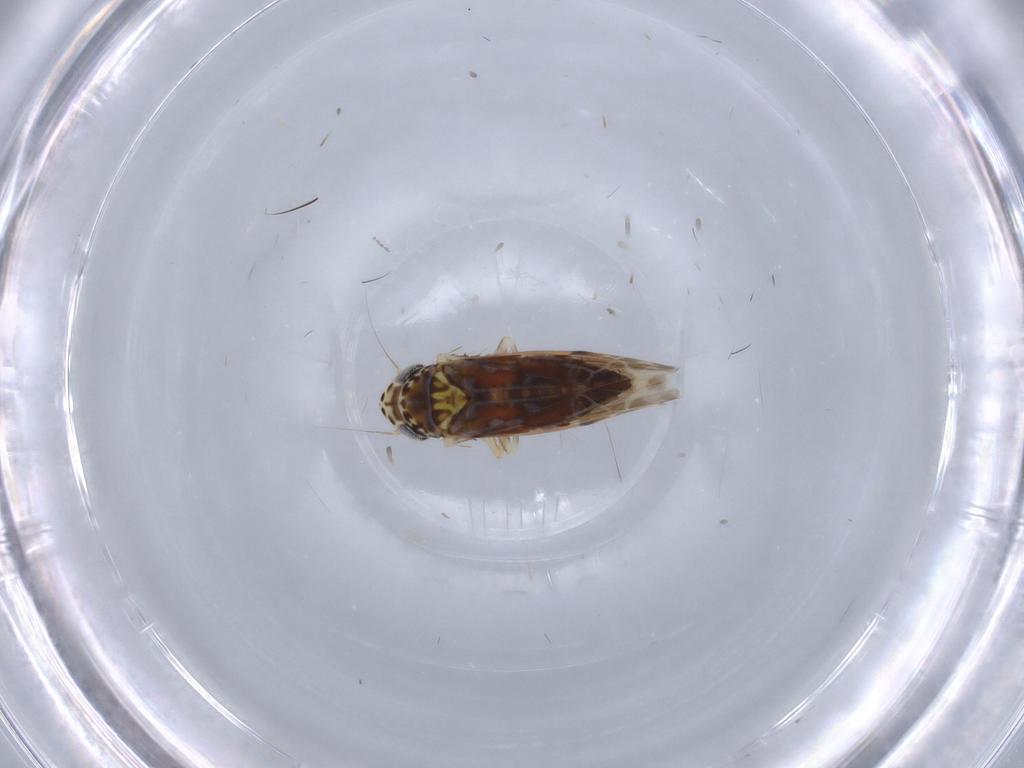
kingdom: Animalia
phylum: Arthropoda
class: Insecta
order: Hemiptera
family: Cicadellidae
